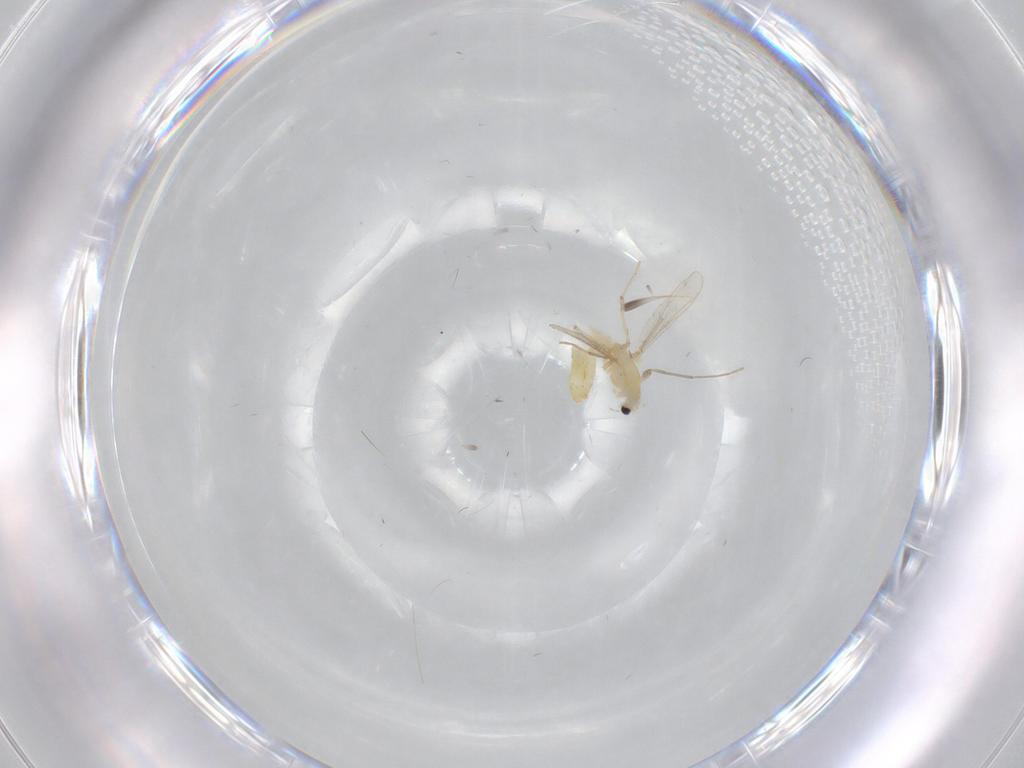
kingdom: Animalia
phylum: Arthropoda
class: Insecta
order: Diptera
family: Chironomidae
